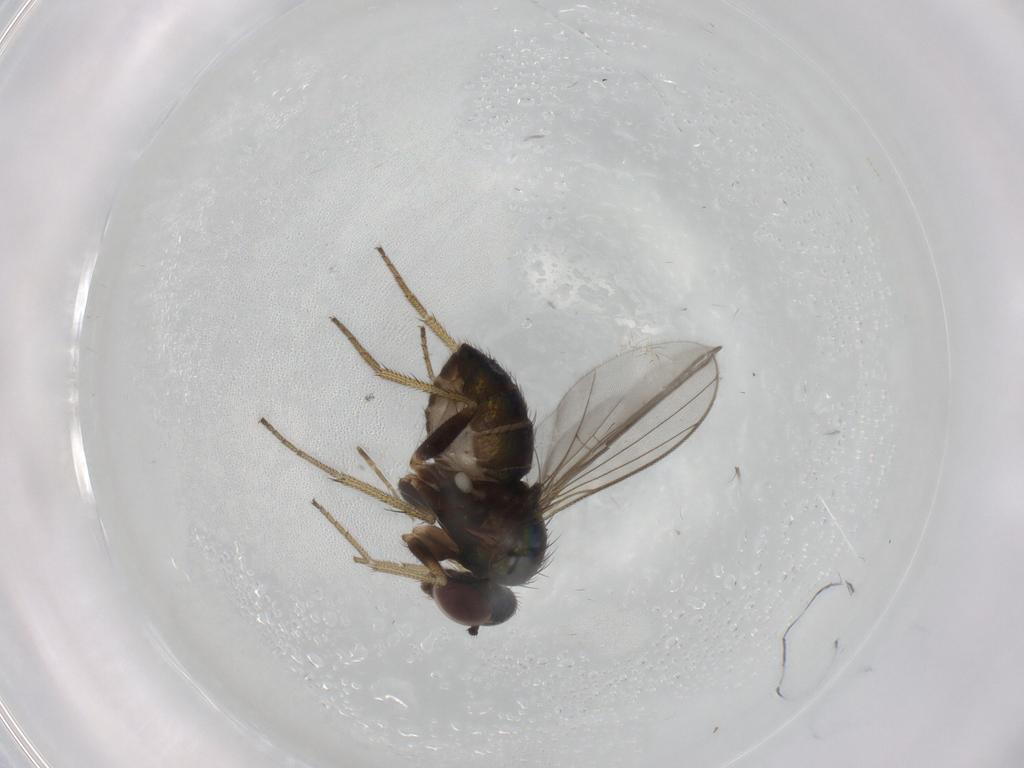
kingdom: Animalia
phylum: Arthropoda
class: Insecta
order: Diptera
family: Dolichopodidae
